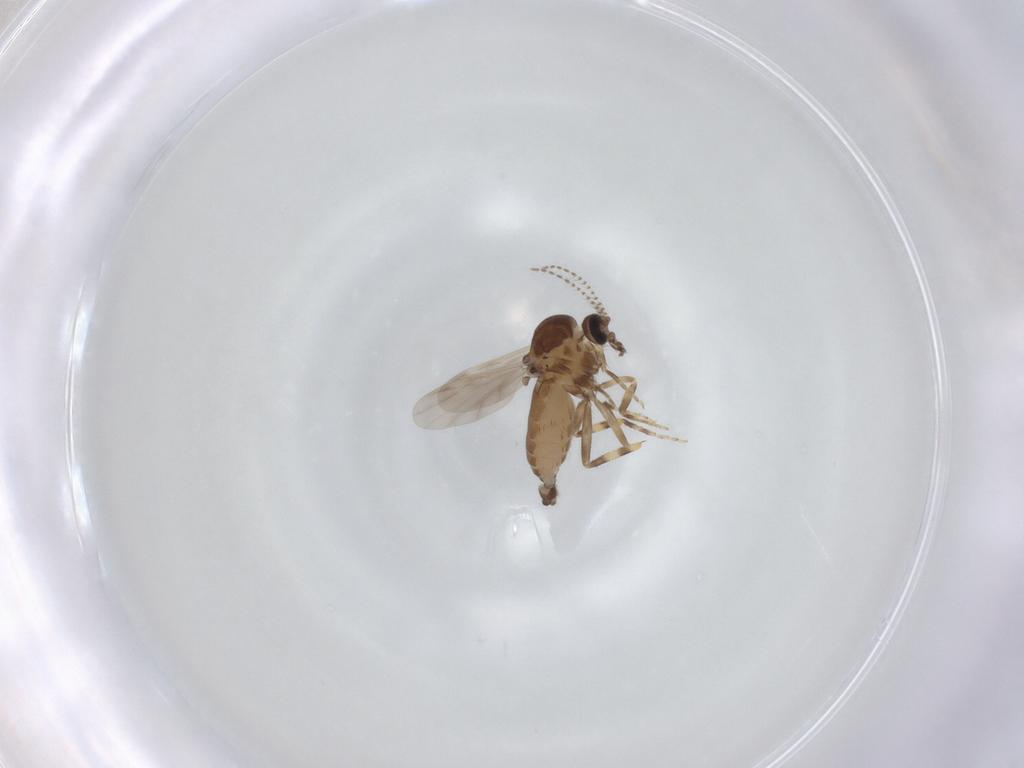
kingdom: Animalia
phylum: Arthropoda
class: Insecta
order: Diptera
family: Ceratopogonidae
